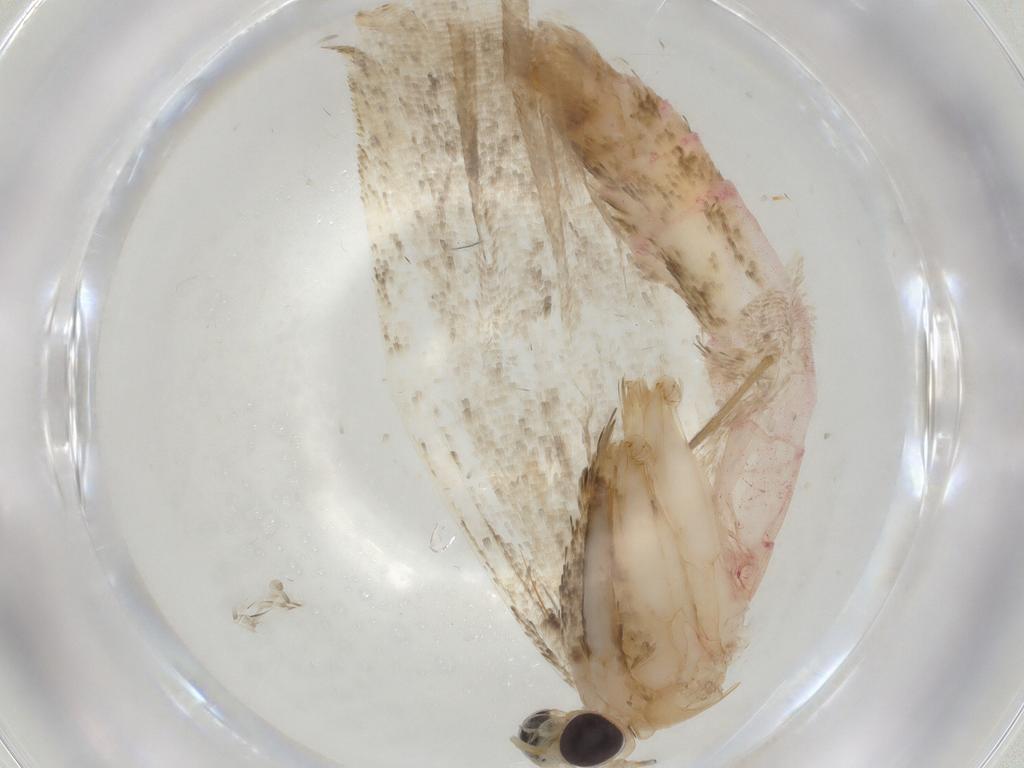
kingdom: Animalia
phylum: Arthropoda
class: Insecta
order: Lepidoptera
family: Erebidae
